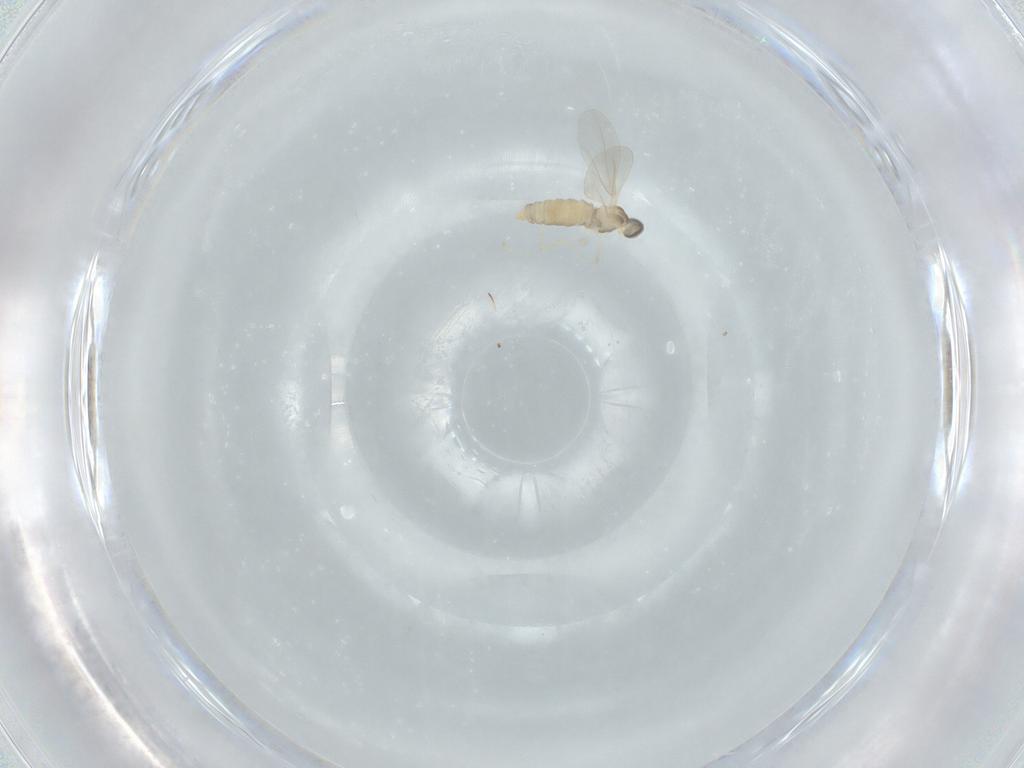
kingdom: Animalia
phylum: Arthropoda
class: Insecta
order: Diptera
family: Cecidomyiidae
